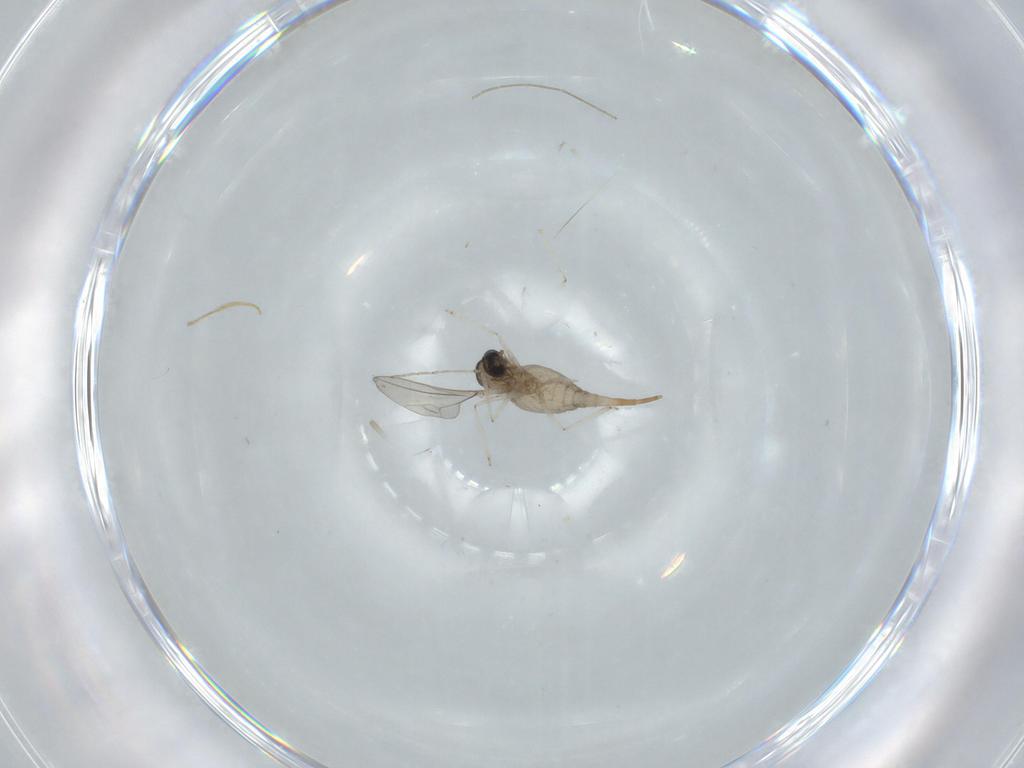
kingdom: Animalia
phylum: Arthropoda
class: Insecta
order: Diptera
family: Cecidomyiidae
